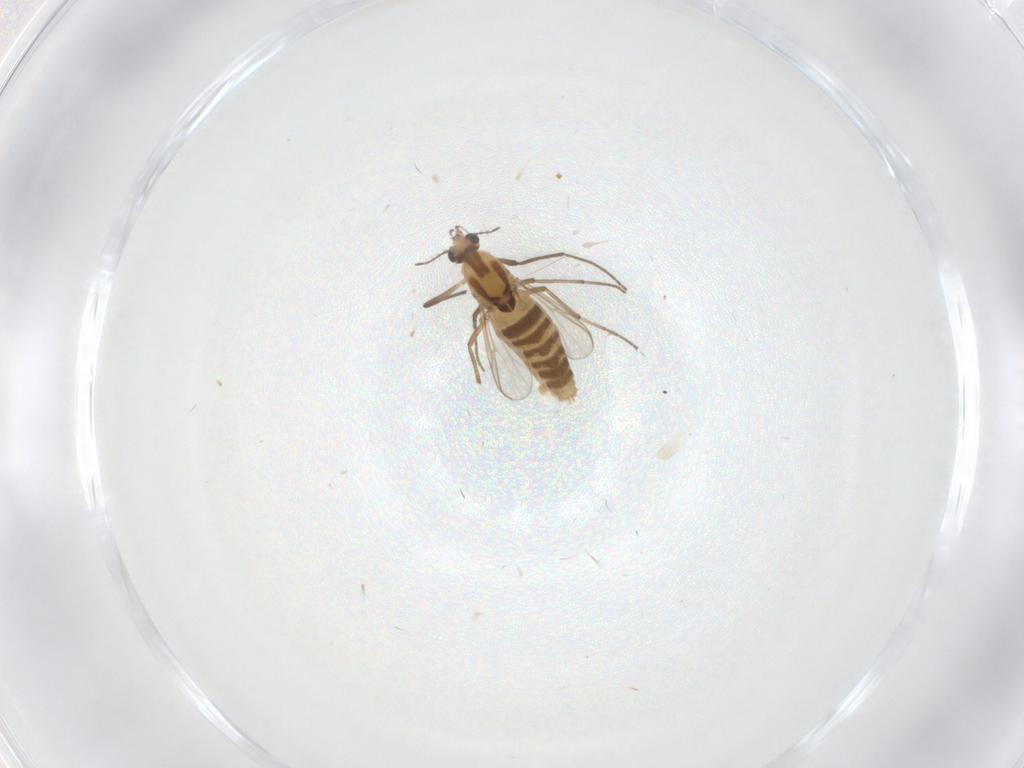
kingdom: Animalia
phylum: Arthropoda
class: Insecta
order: Diptera
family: Chironomidae
